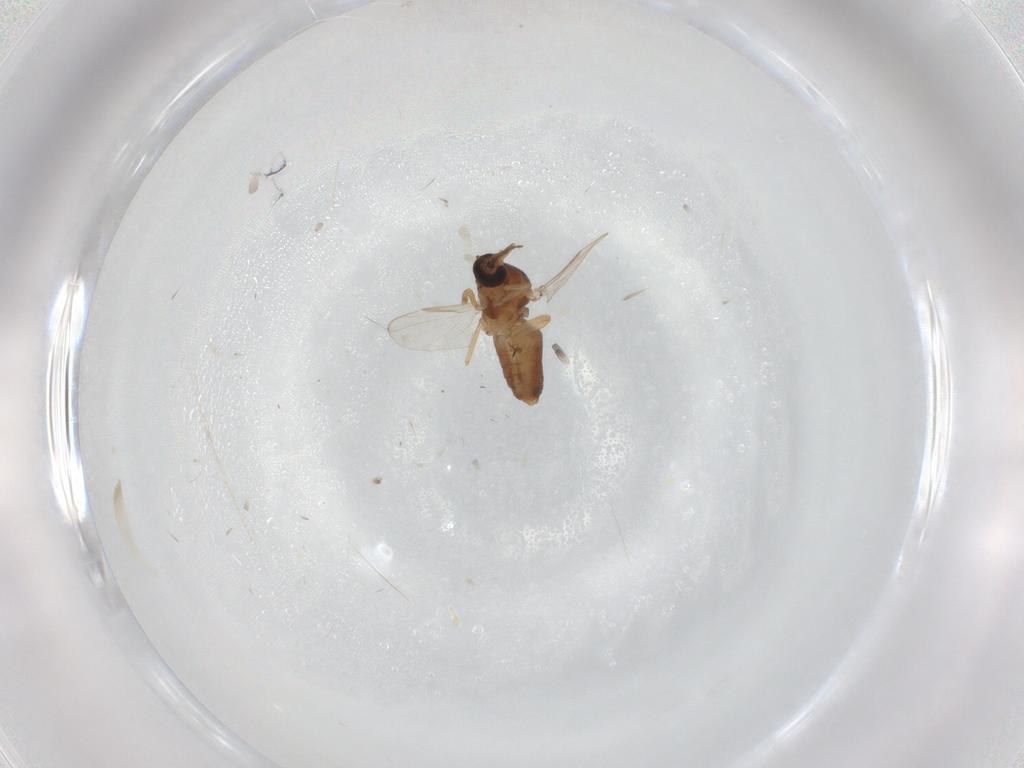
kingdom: Animalia
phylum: Arthropoda
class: Insecta
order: Diptera
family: Ceratopogonidae
